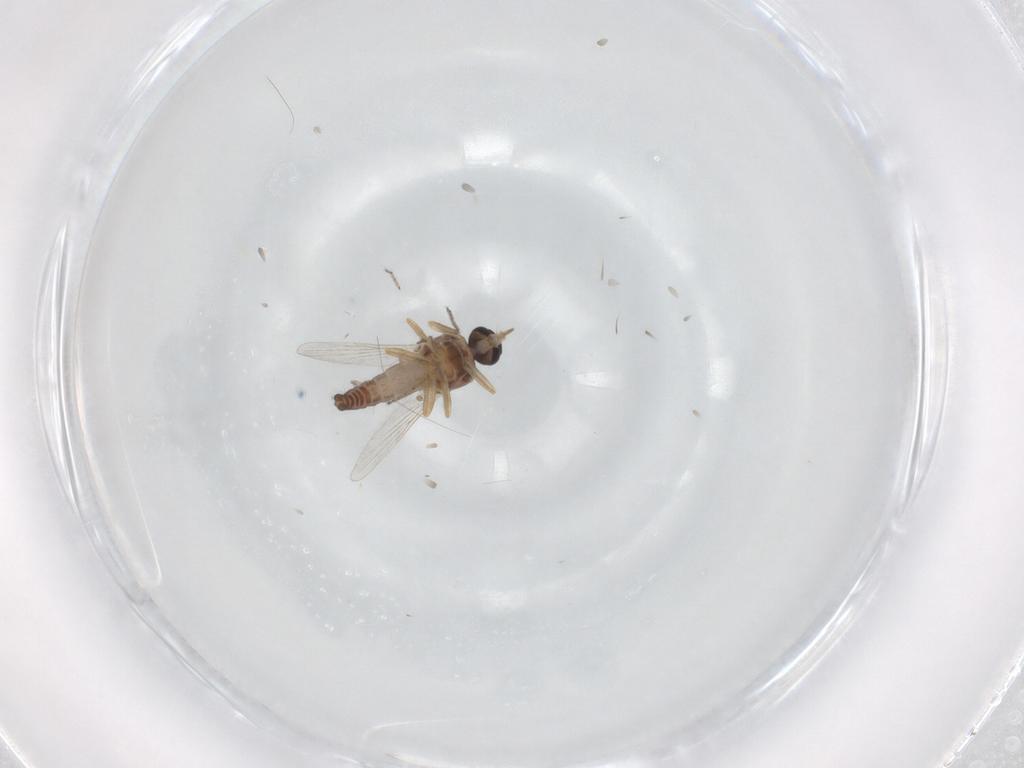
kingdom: Animalia
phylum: Arthropoda
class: Insecta
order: Diptera
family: Ceratopogonidae
